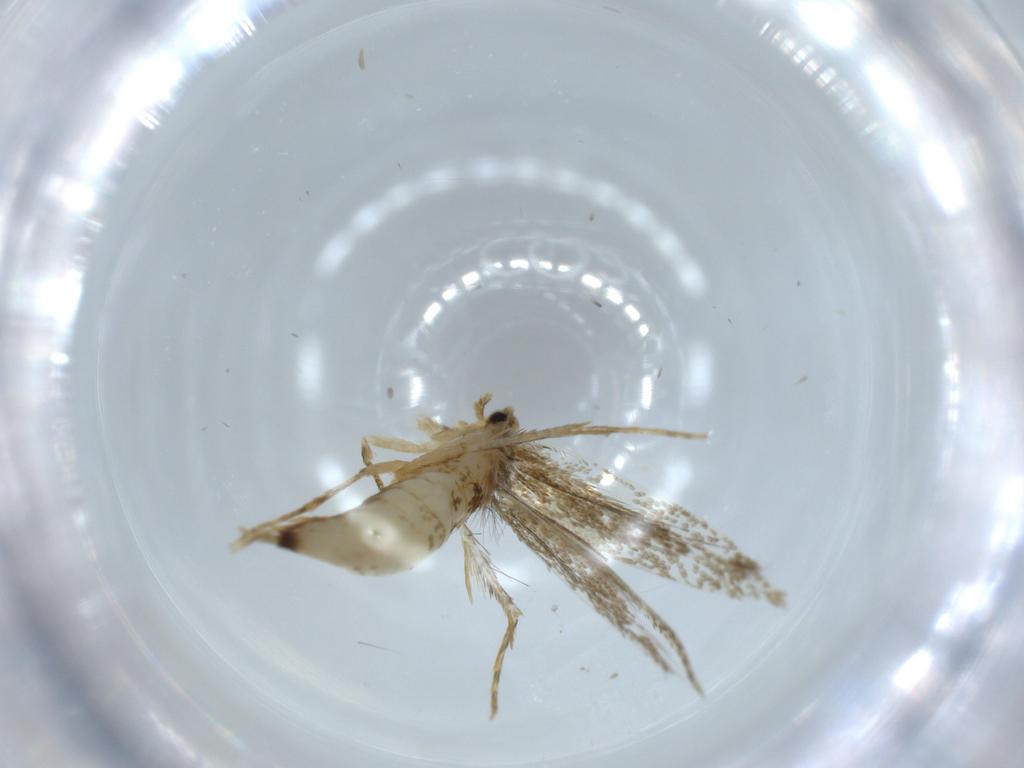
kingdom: Animalia
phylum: Arthropoda
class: Insecta
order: Lepidoptera
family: Tineidae
